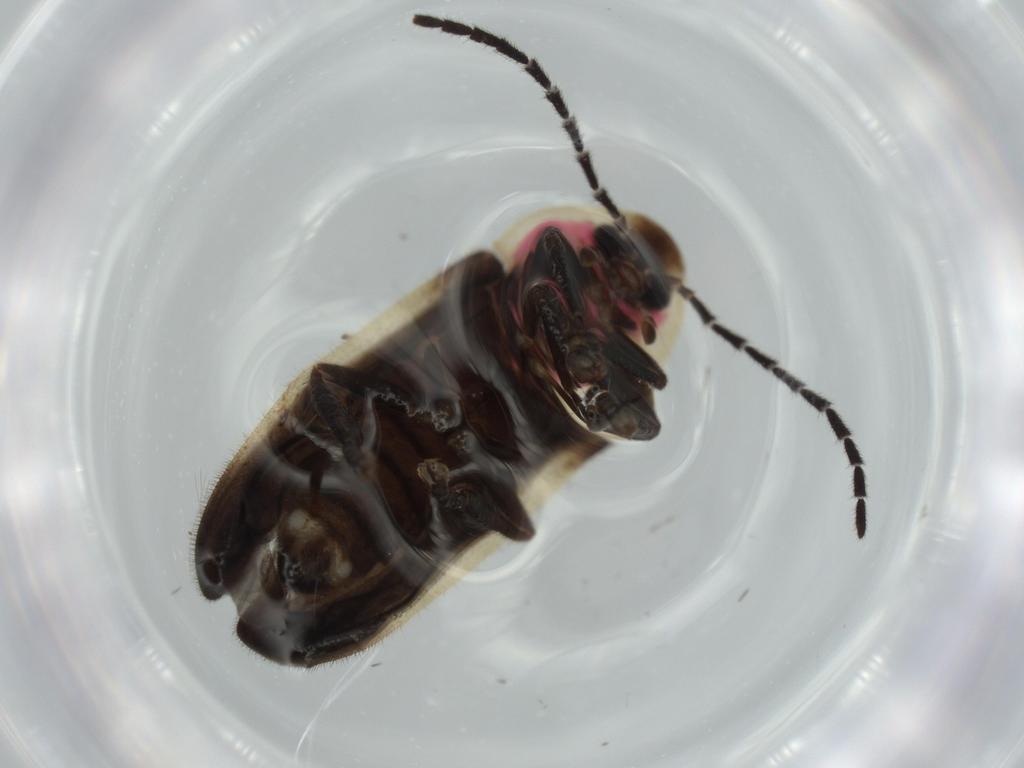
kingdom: Animalia
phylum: Arthropoda
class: Insecta
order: Coleoptera
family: Lampyridae
